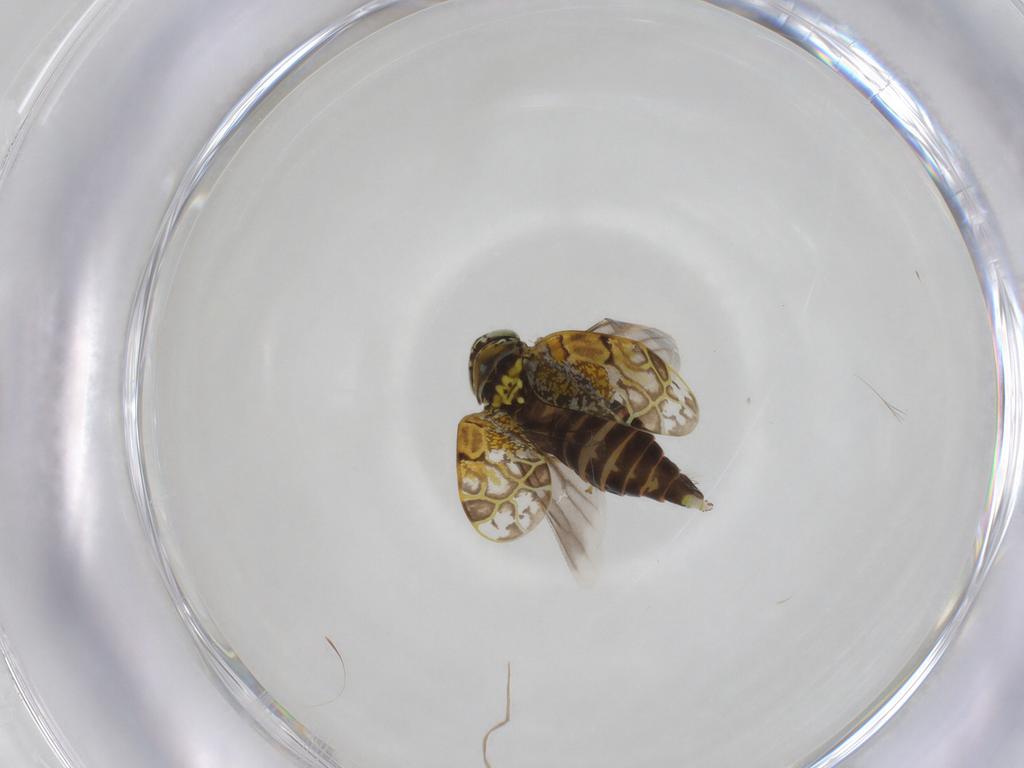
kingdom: Animalia
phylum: Arthropoda
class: Insecta
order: Hemiptera
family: Cicadellidae
